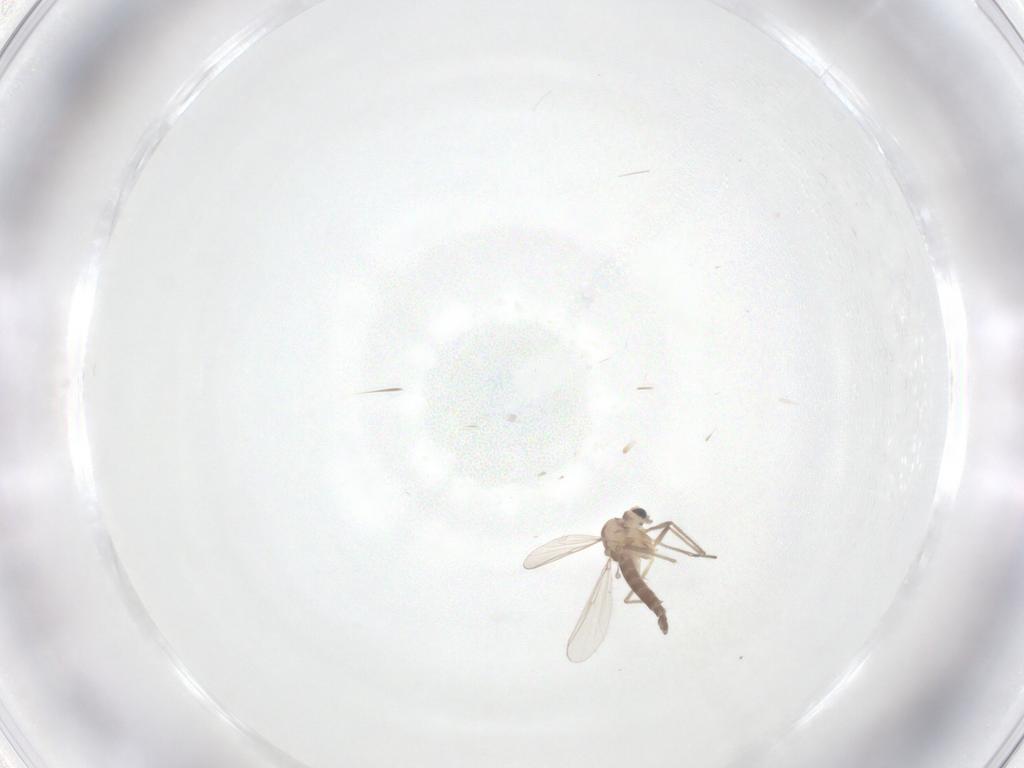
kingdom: Animalia
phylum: Arthropoda
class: Insecta
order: Diptera
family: Chironomidae
